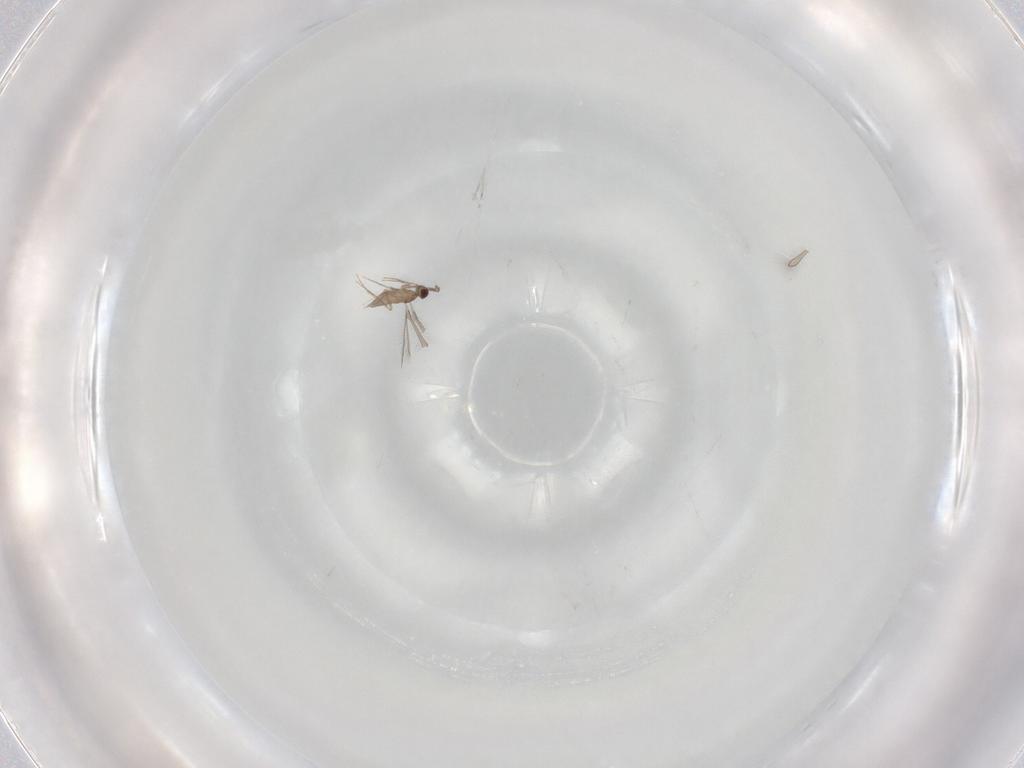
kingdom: Animalia
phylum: Arthropoda
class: Insecta
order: Hymenoptera
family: Mymaridae
